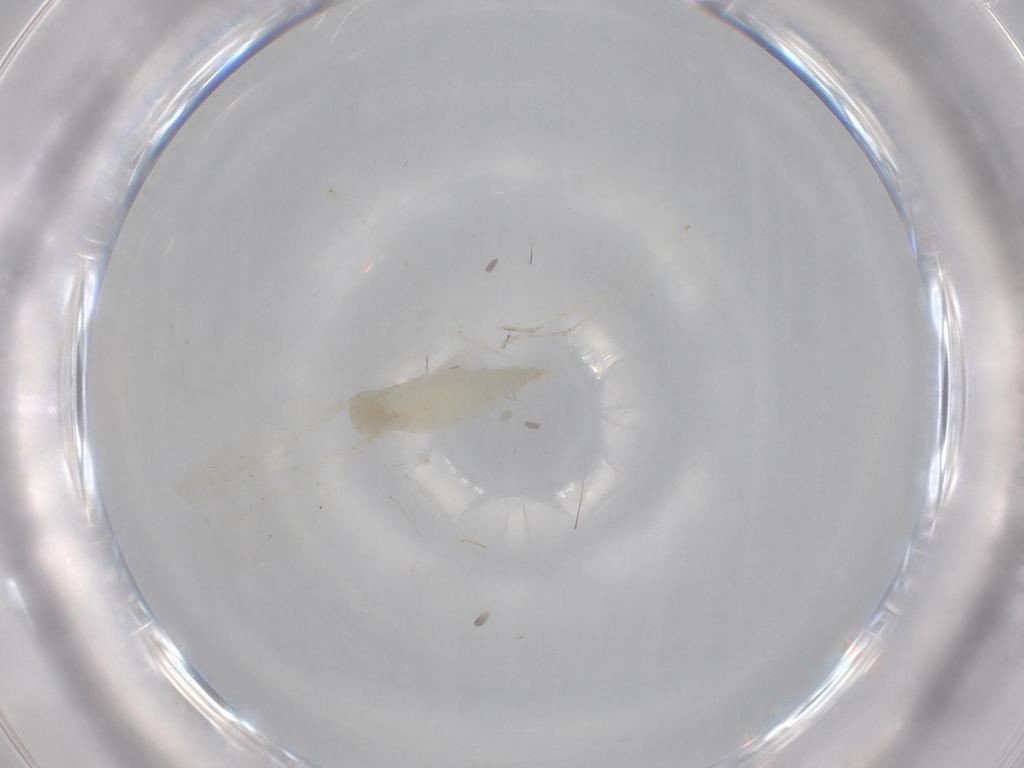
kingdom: Animalia
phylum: Arthropoda
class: Insecta
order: Diptera
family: Cecidomyiidae
